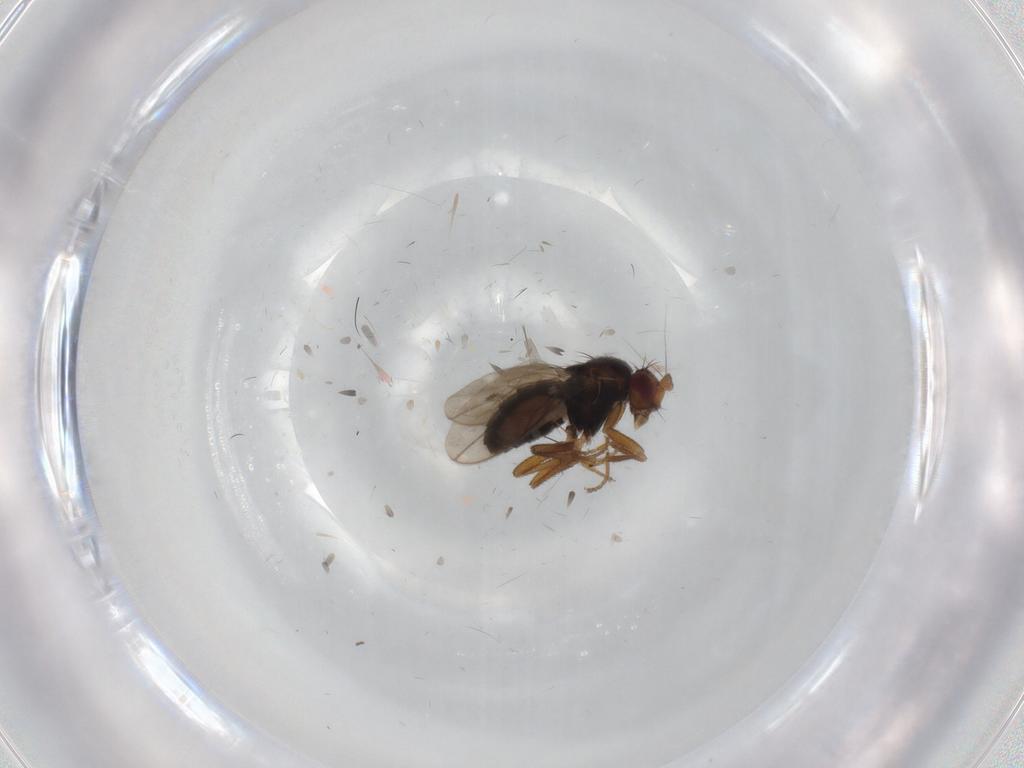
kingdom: Animalia
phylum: Arthropoda
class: Insecta
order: Diptera
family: Sphaeroceridae
